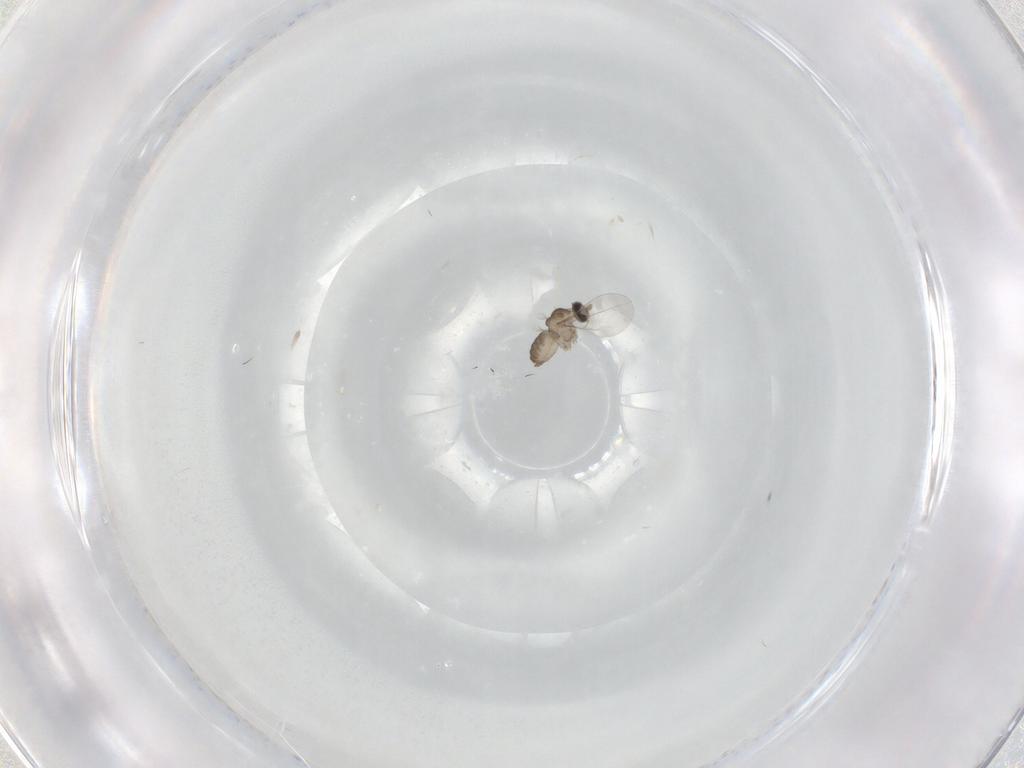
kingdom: Animalia
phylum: Arthropoda
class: Insecta
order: Diptera
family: Cecidomyiidae
